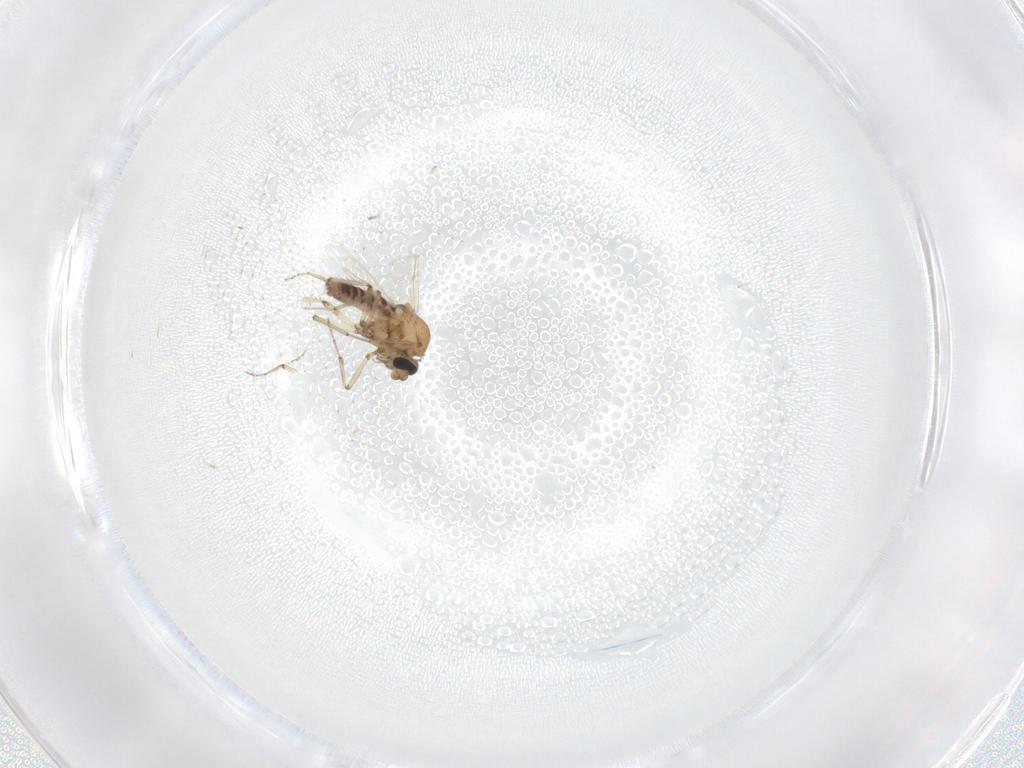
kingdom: Animalia
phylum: Arthropoda
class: Insecta
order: Diptera
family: Ceratopogonidae
